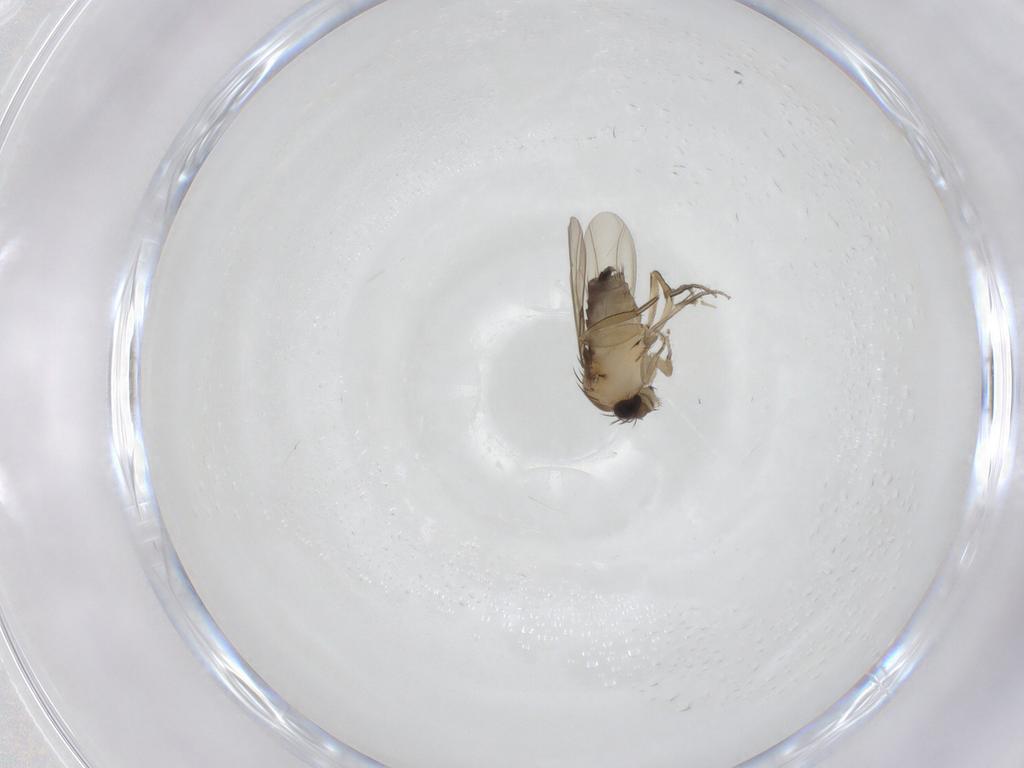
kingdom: Animalia
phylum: Arthropoda
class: Insecta
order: Diptera
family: Phoridae
